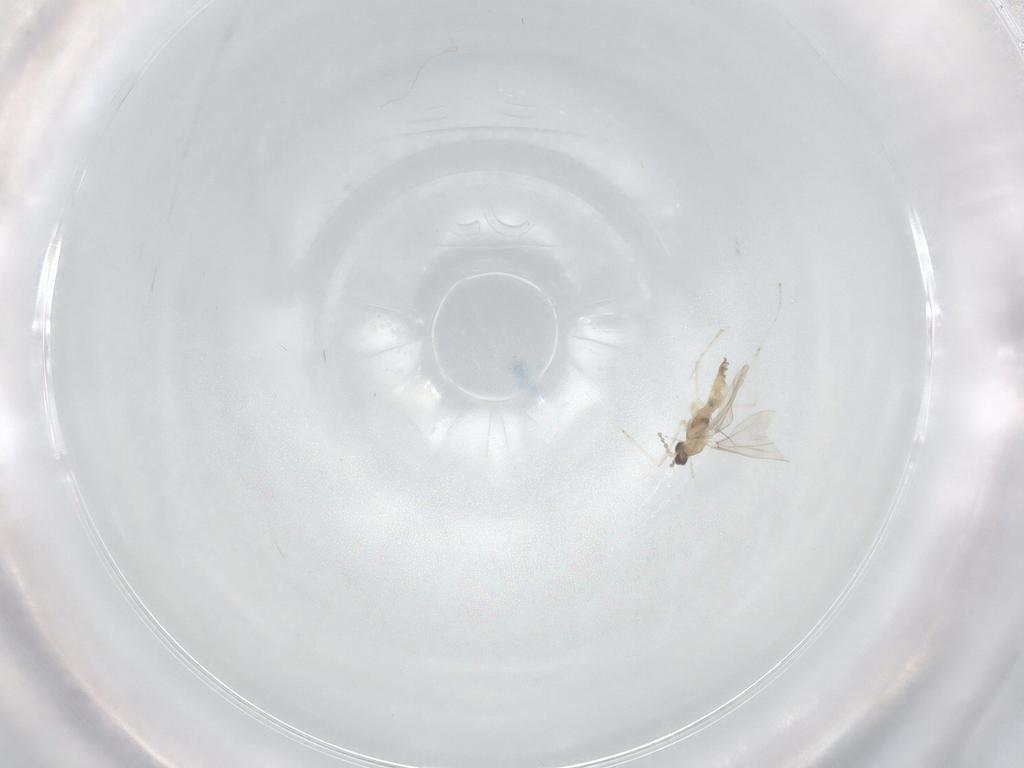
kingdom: Animalia
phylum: Arthropoda
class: Insecta
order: Diptera
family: Cecidomyiidae
